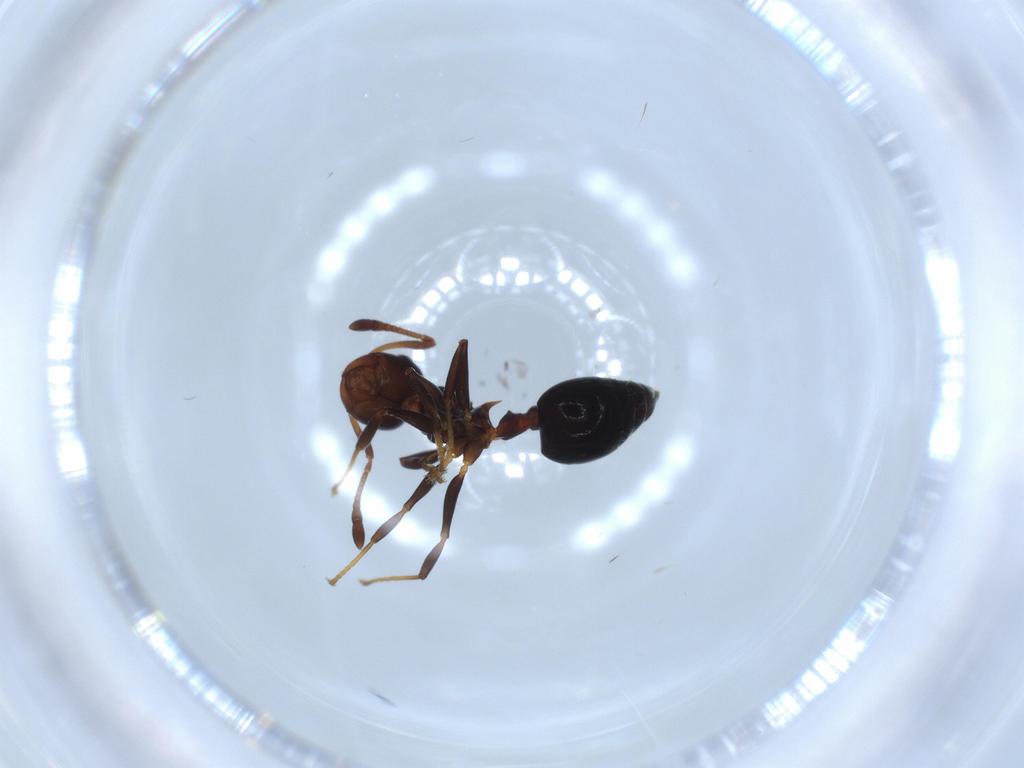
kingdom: Animalia
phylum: Arthropoda
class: Insecta
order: Hymenoptera
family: Formicidae
